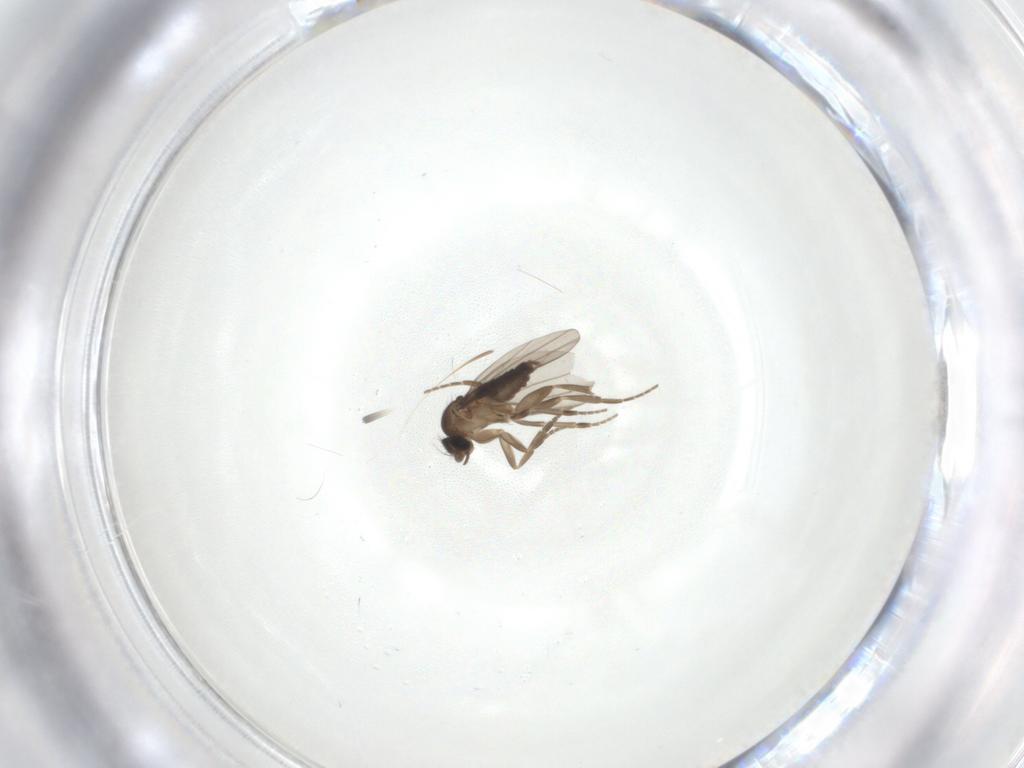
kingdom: Animalia
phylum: Arthropoda
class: Insecta
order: Diptera
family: Phoridae
